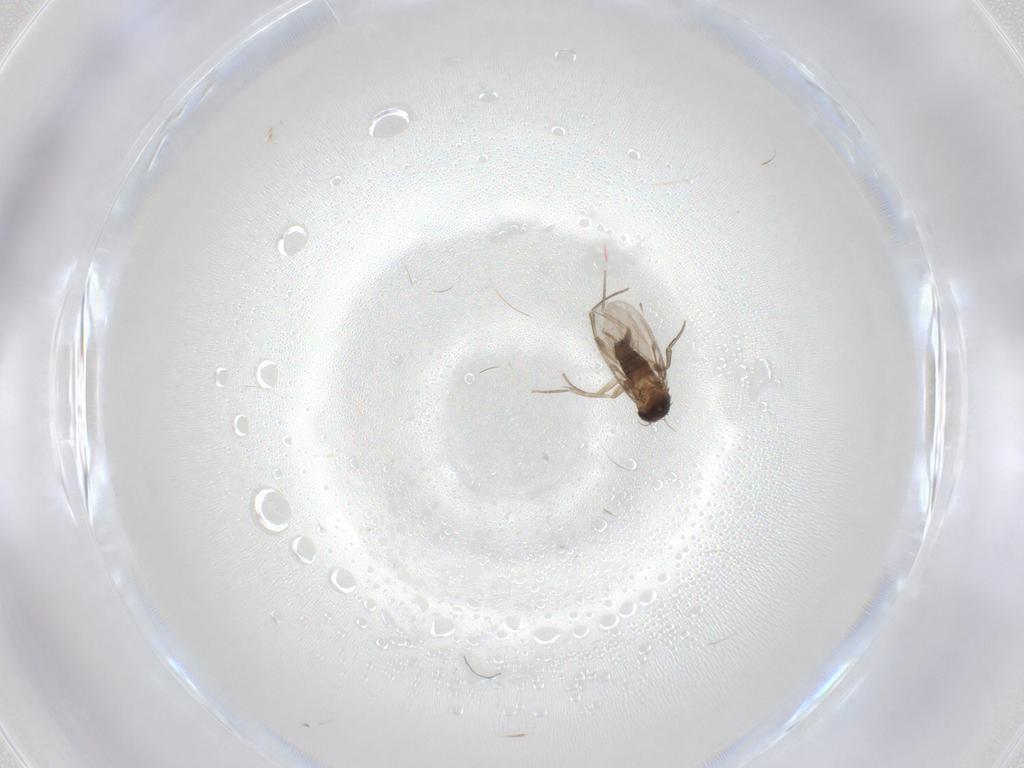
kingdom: Animalia
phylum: Arthropoda
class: Insecta
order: Diptera
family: Phoridae
